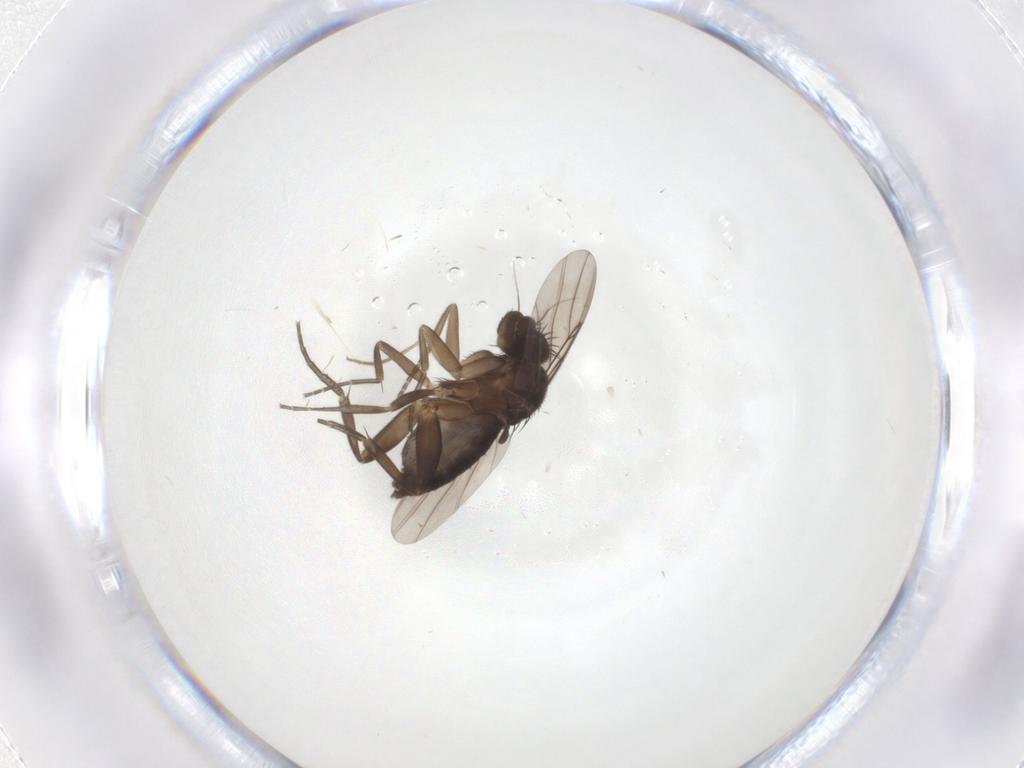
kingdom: Animalia
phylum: Arthropoda
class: Insecta
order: Diptera
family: Phoridae
